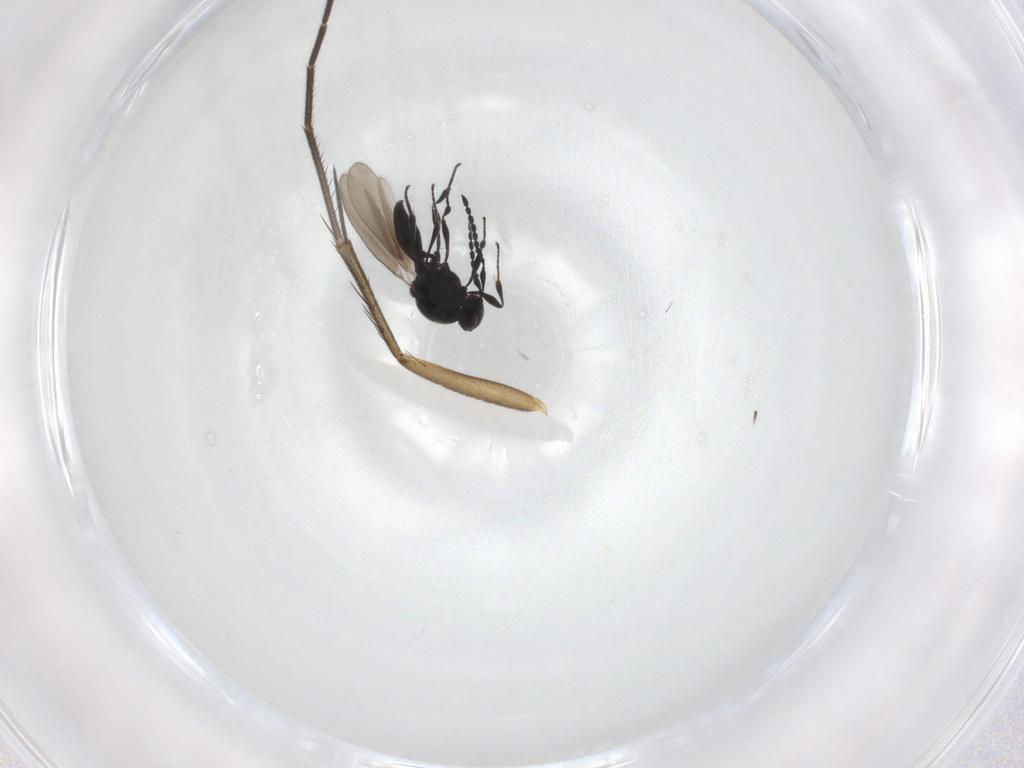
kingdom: Animalia
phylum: Arthropoda
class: Insecta
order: Hymenoptera
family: Platygastridae
